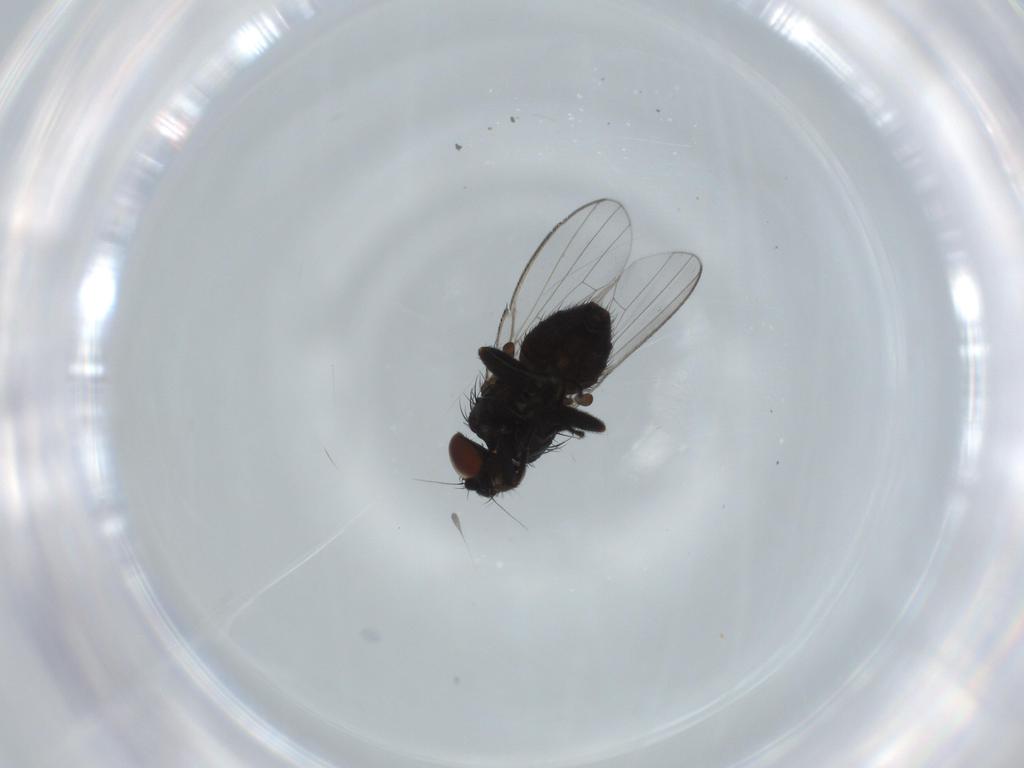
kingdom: Animalia
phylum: Arthropoda
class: Insecta
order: Diptera
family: Milichiidae
